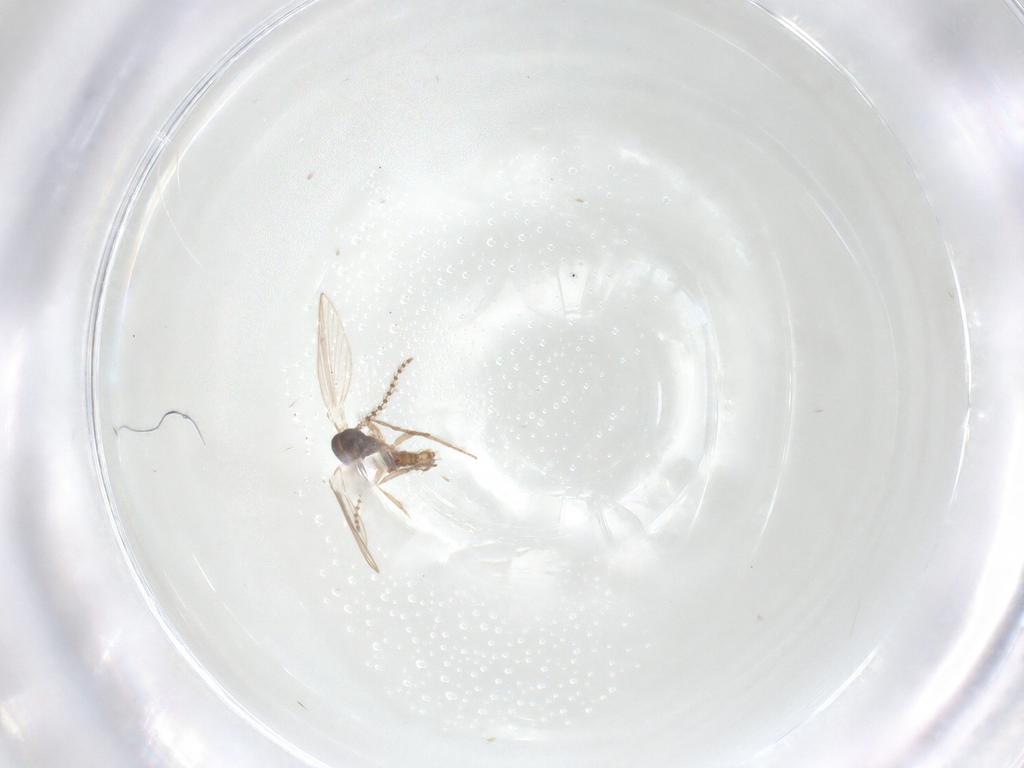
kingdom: Animalia
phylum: Arthropoda
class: Insecta
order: Diptera
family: Cecidomyiidae
